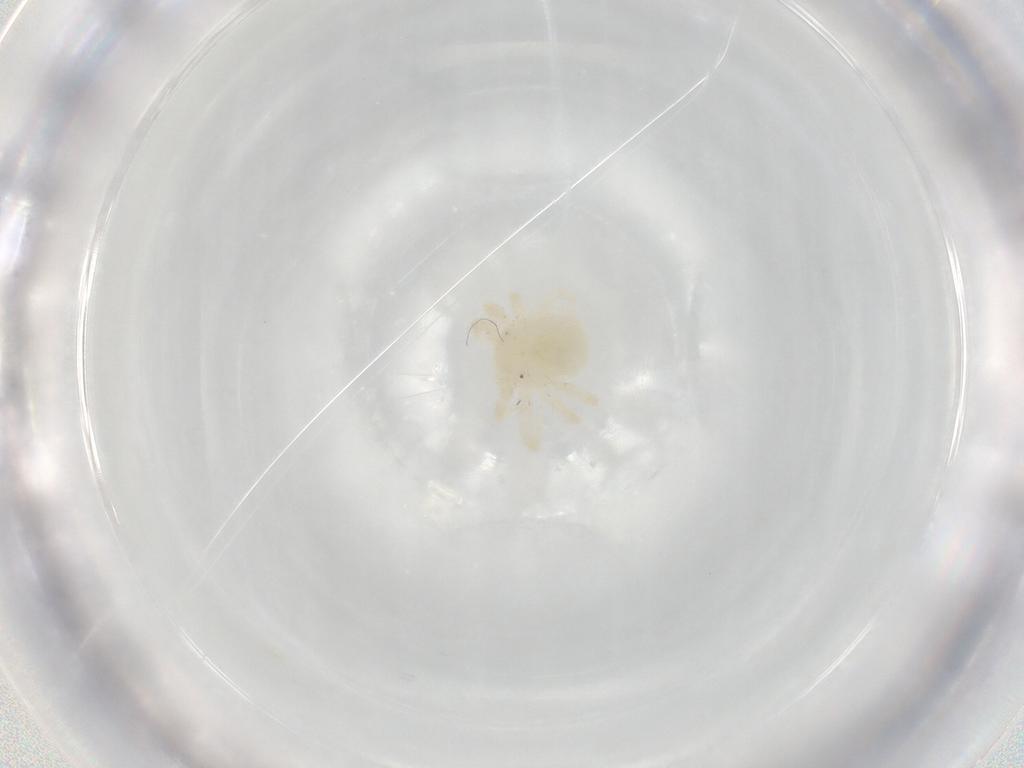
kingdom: Animalia
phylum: Arthropoda
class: Arachnida
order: Trombidiformes
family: Anystidae
